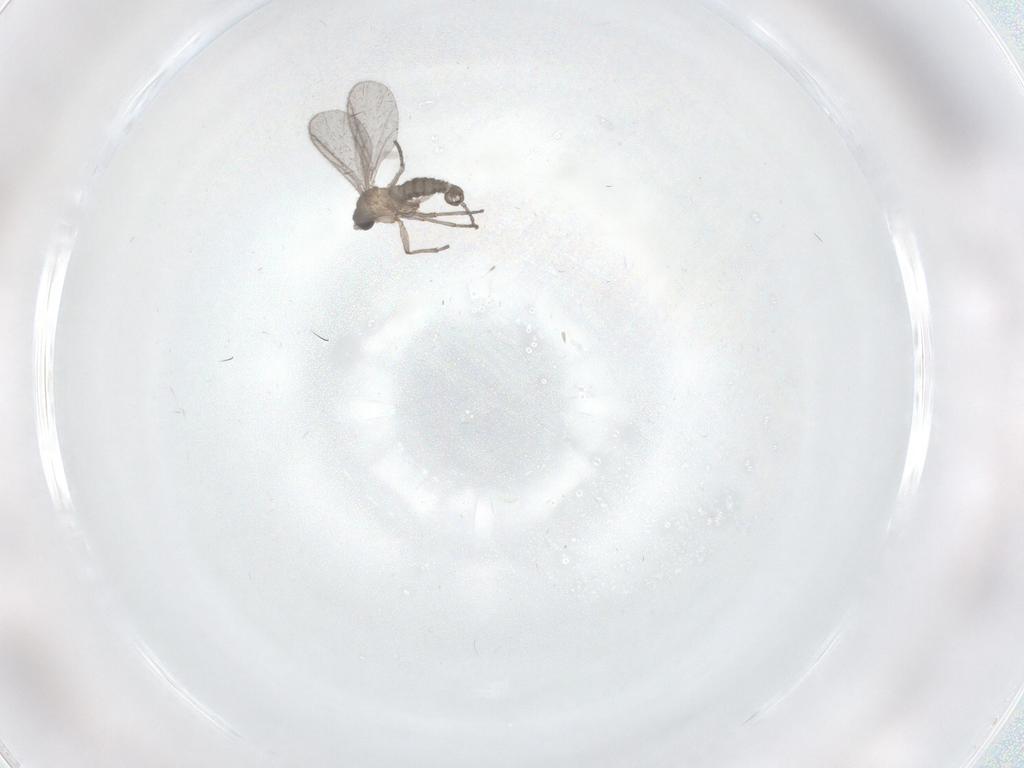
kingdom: Animalia
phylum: Arthropoda
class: Insecta
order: Diptera
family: Sciaridae
